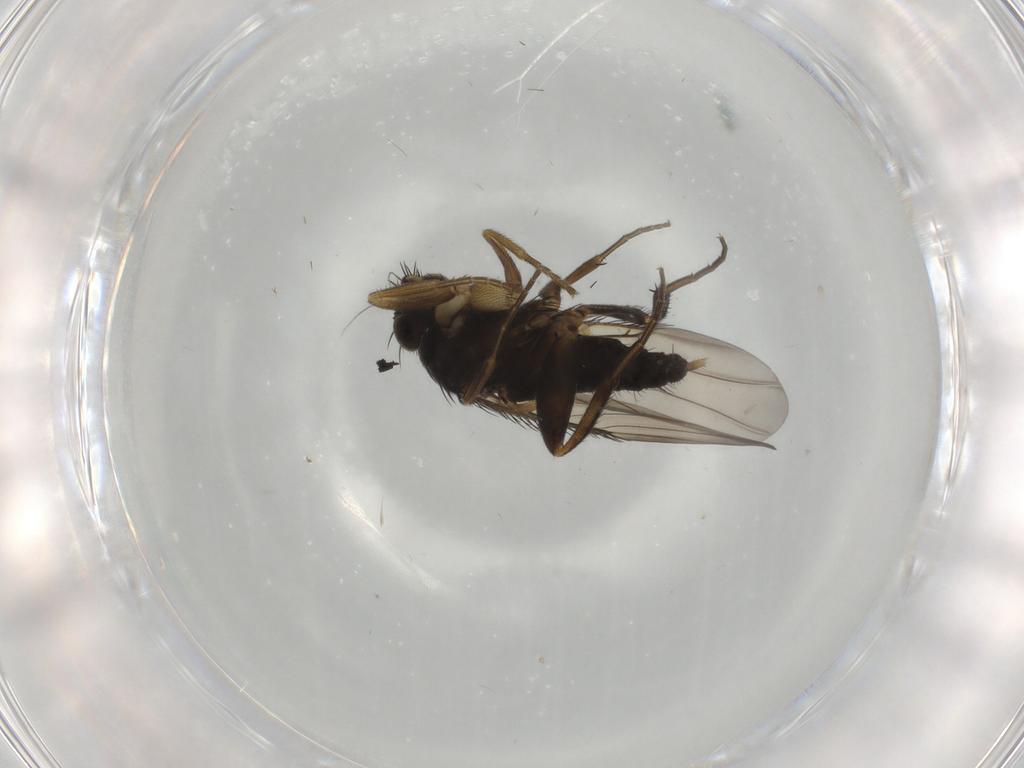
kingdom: Animalia
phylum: Arthropoda
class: Insecta
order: Diptera
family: Phoridae
